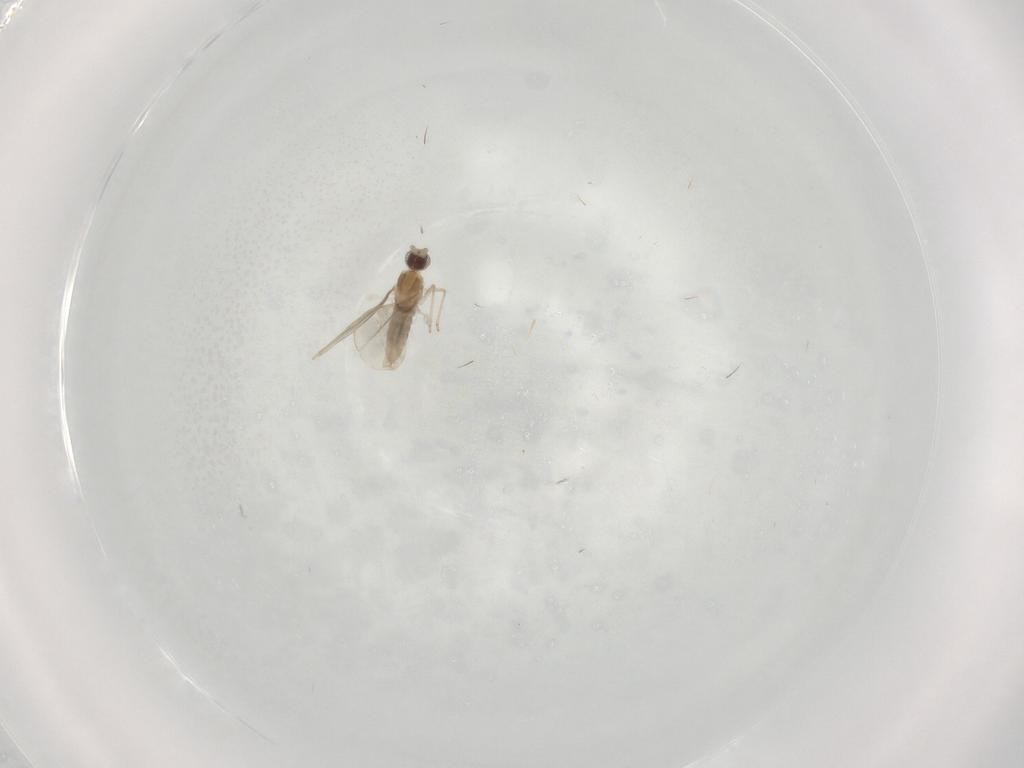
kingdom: Animalia
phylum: Arthropoda
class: Insecta
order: Diptera
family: Cecidomyiidae
